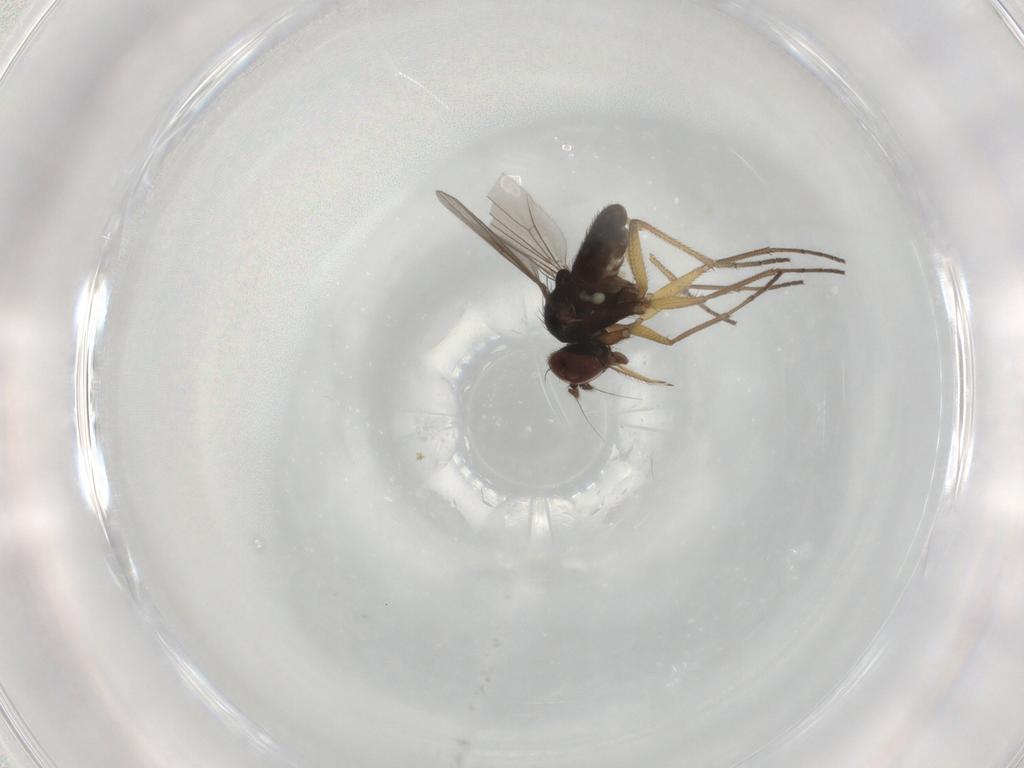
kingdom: Animalia
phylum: Arthropoda
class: Insecta
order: Diptera
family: Dolichopodidae
